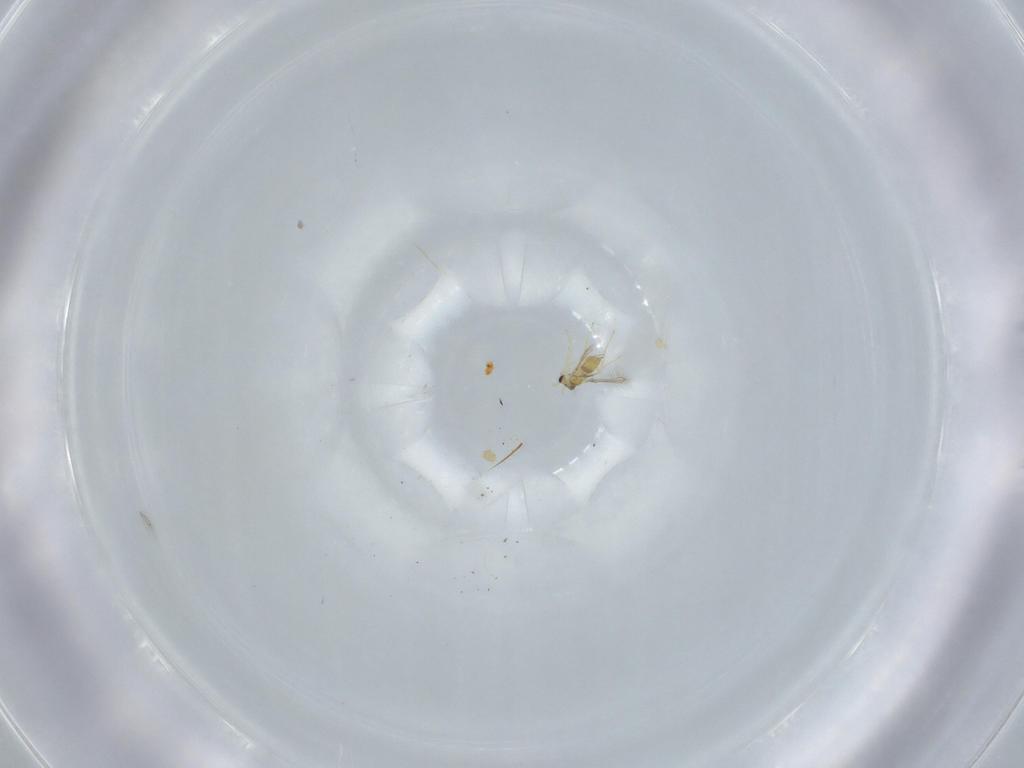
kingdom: Animalia
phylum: Arthropoda
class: Insecta
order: Hymenoptera
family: Mymaridae
